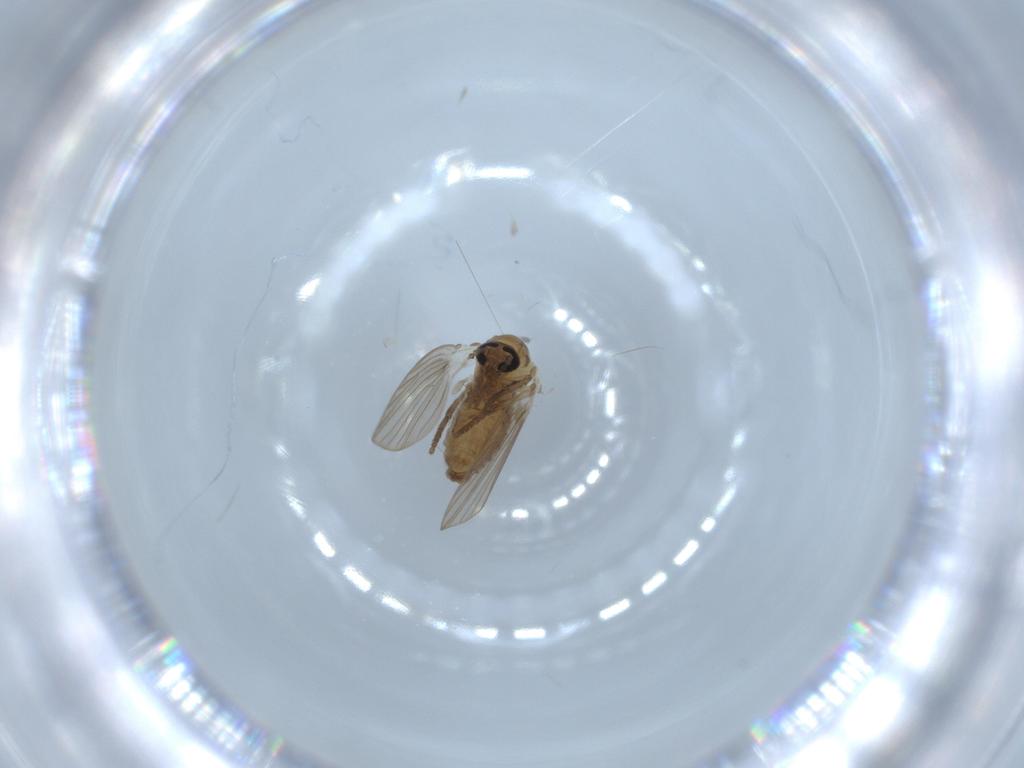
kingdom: Animalia
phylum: Arthropoda
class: Insecta
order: Diptera
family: Psychodidae
